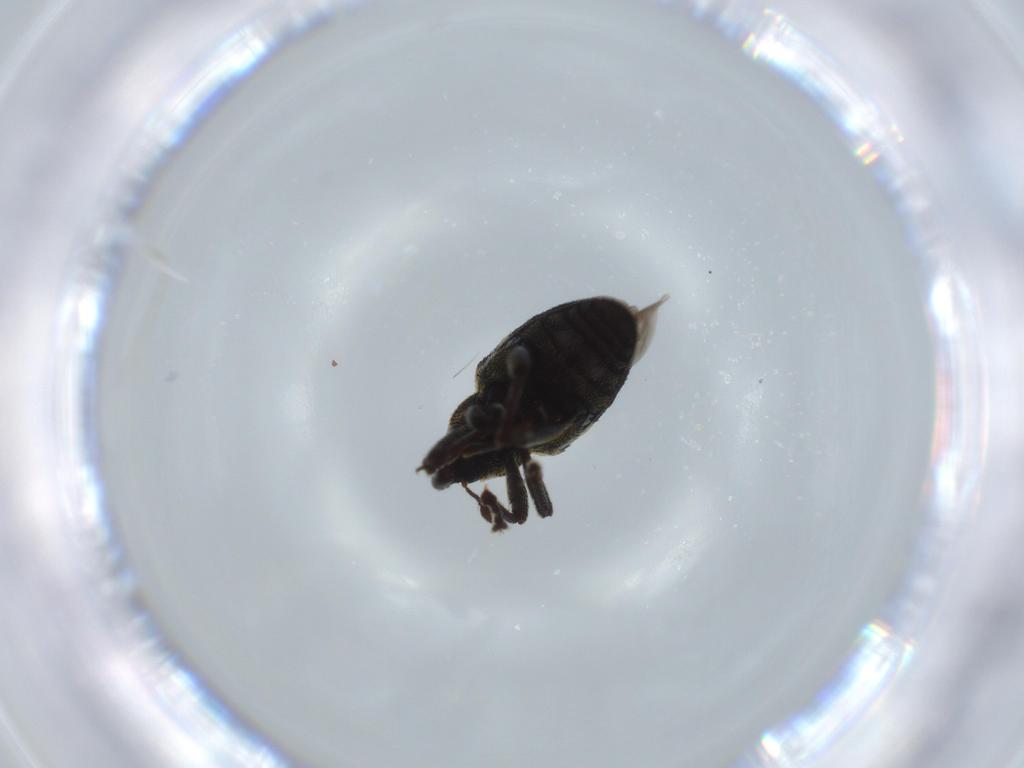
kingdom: Animalia
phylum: Arthropoda
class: Insecta
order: Coleoptera
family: Curculionidae
